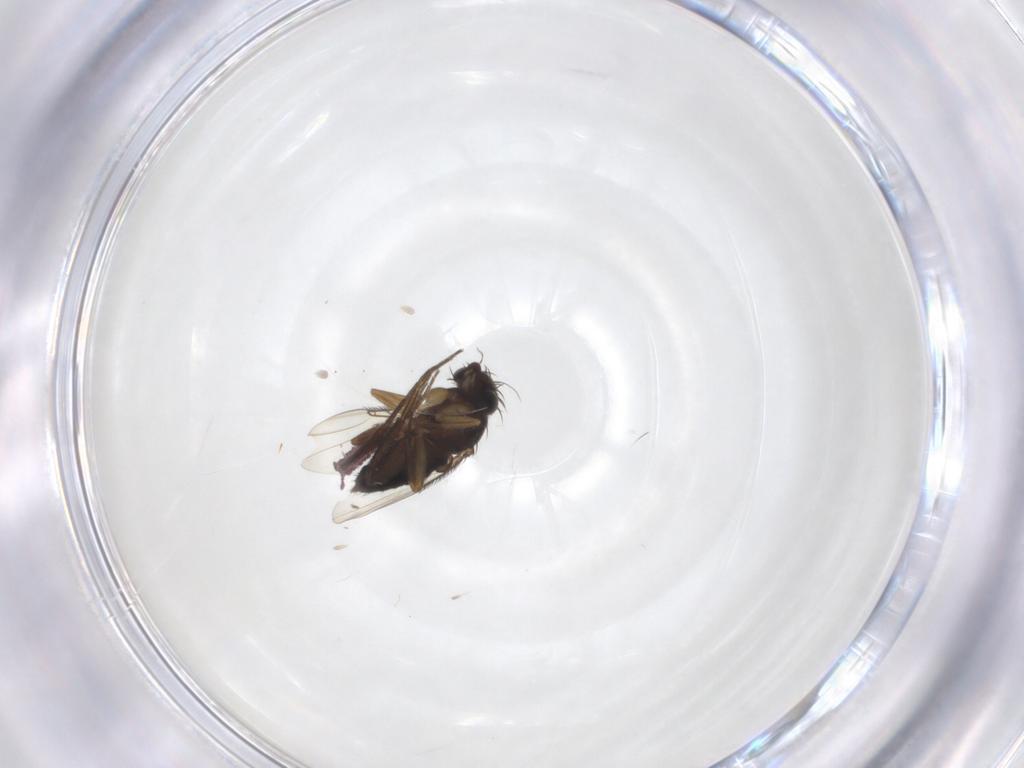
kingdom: Animalia
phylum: Arthropoda
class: Insecta
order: Diptera
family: Phoridae
